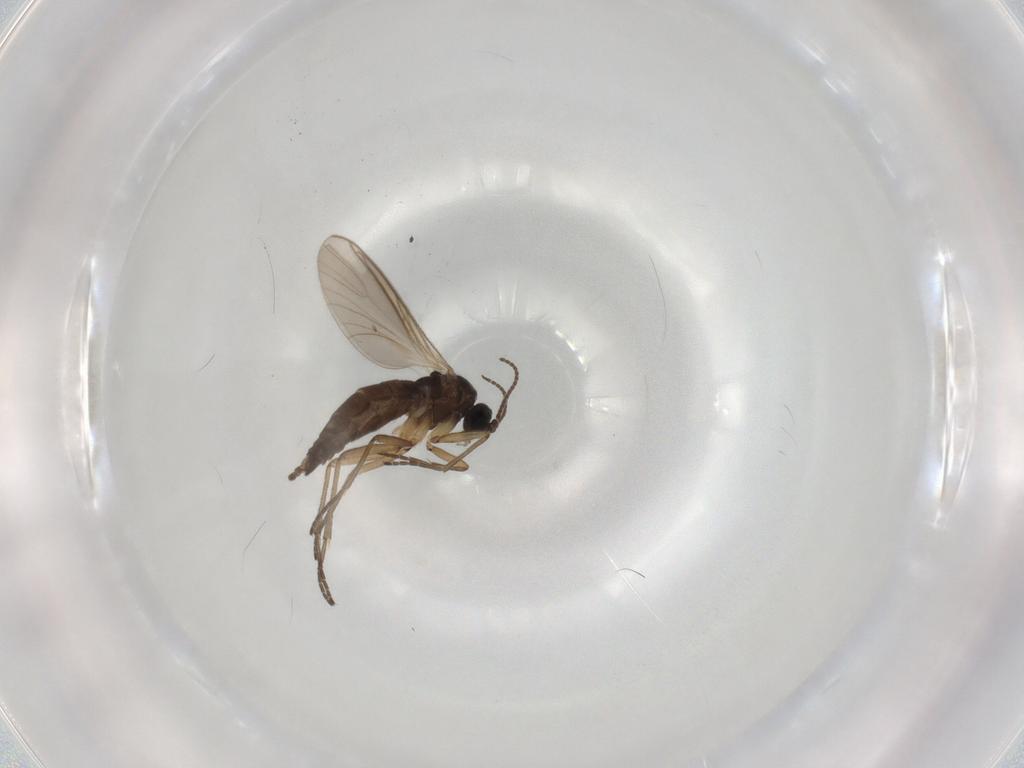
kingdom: Animalia
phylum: Arthropoda
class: Insecta
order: Diptera
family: Sciaridae
